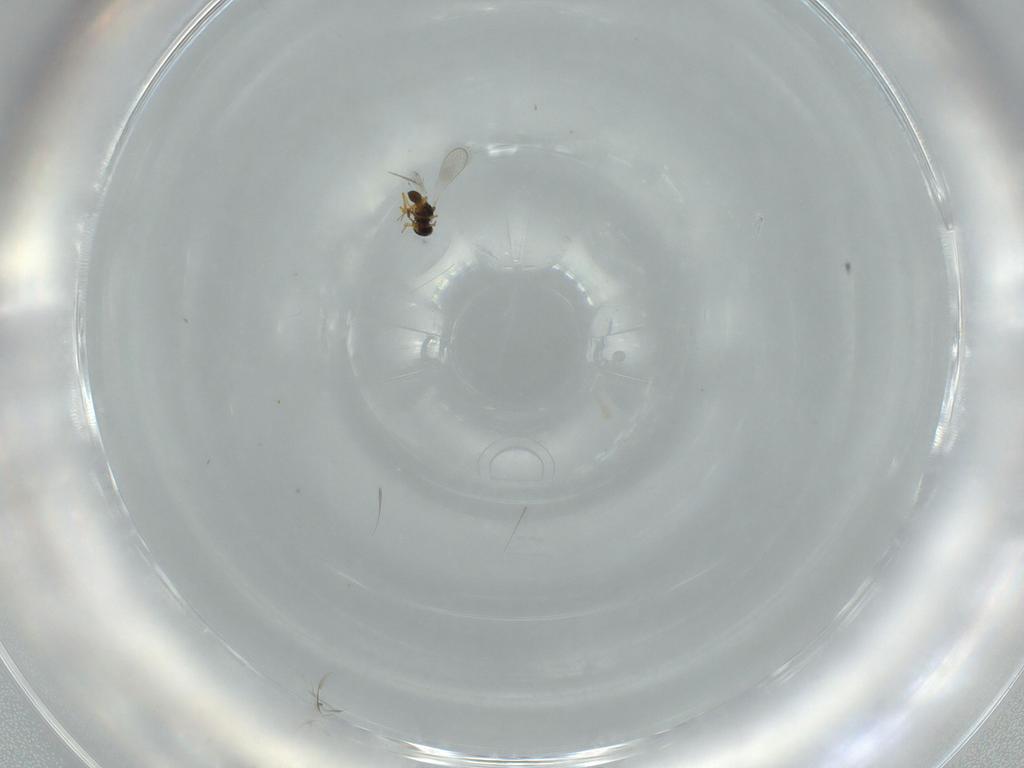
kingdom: Animalia
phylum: Arthropoda
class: Insecta
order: Hymenoptera
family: Platygastridae
